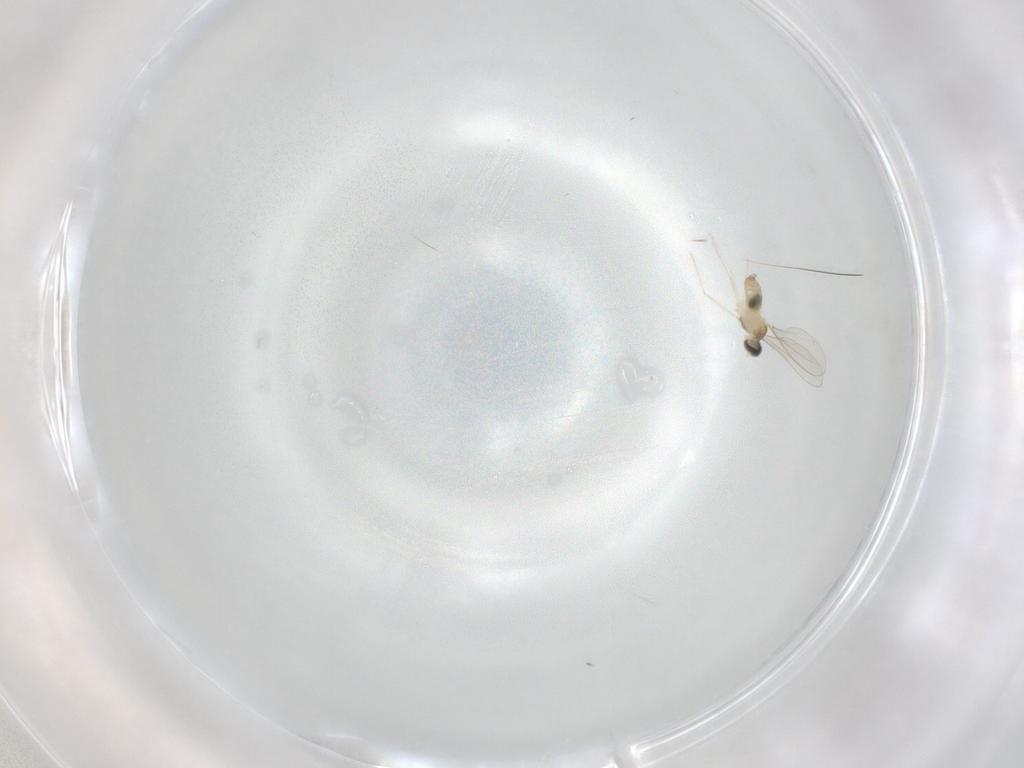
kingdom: Animalia
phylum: Arthropoda
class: Insecta
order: Diptera
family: Cecidomyiidae
